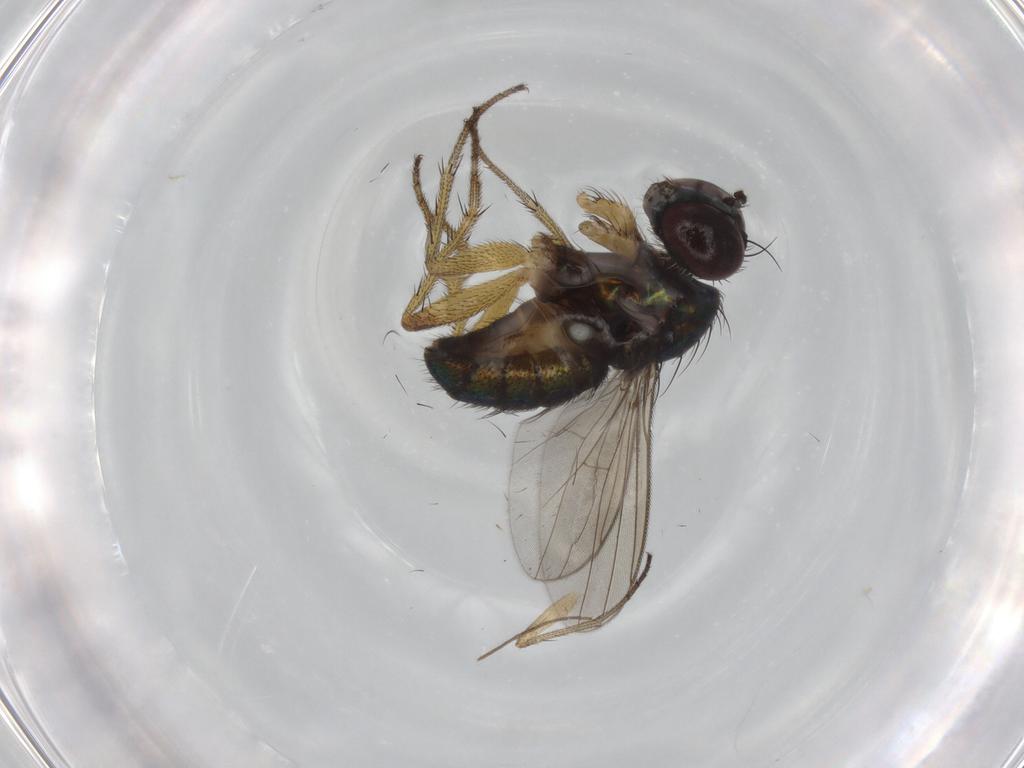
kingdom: Animalia
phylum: Arthropoda
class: Insecta
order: Diptera
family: Dolichopodidae
